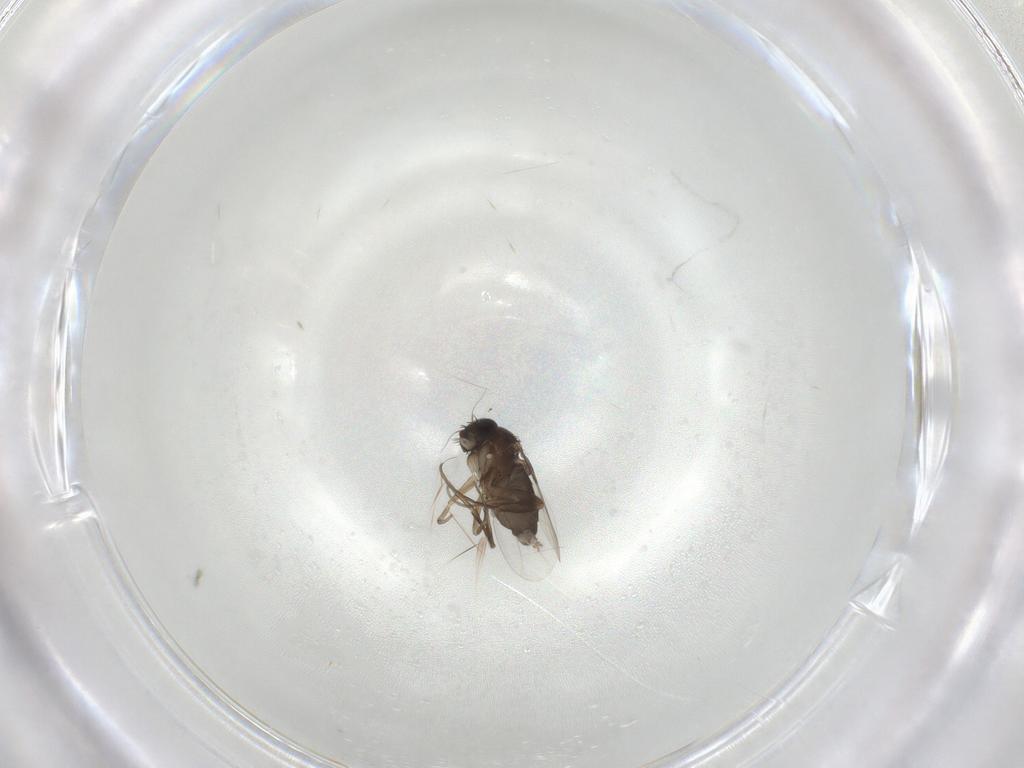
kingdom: Animalia
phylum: Arthropoda
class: Insecta
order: Diptera
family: Phoridae
